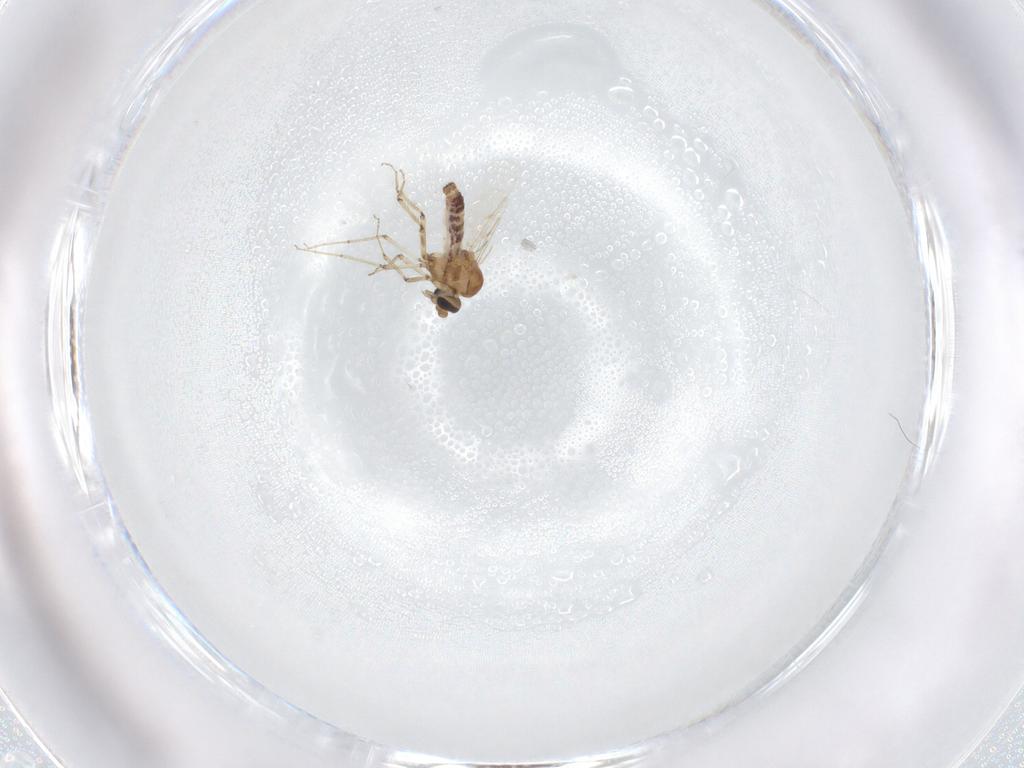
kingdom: Animalia
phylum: Arthropoda
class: Insecta
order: Diptera
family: Ceratopogonidae
